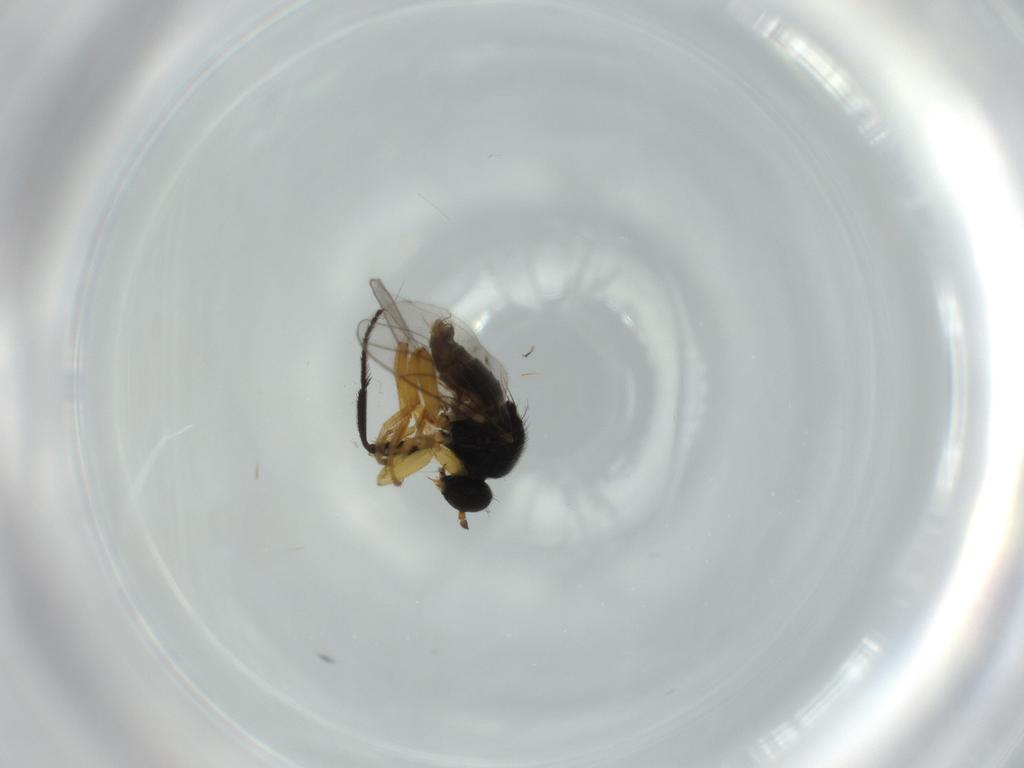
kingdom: Animalia
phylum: Arthropoda
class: Insecta
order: Diptera
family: Hybotidae
